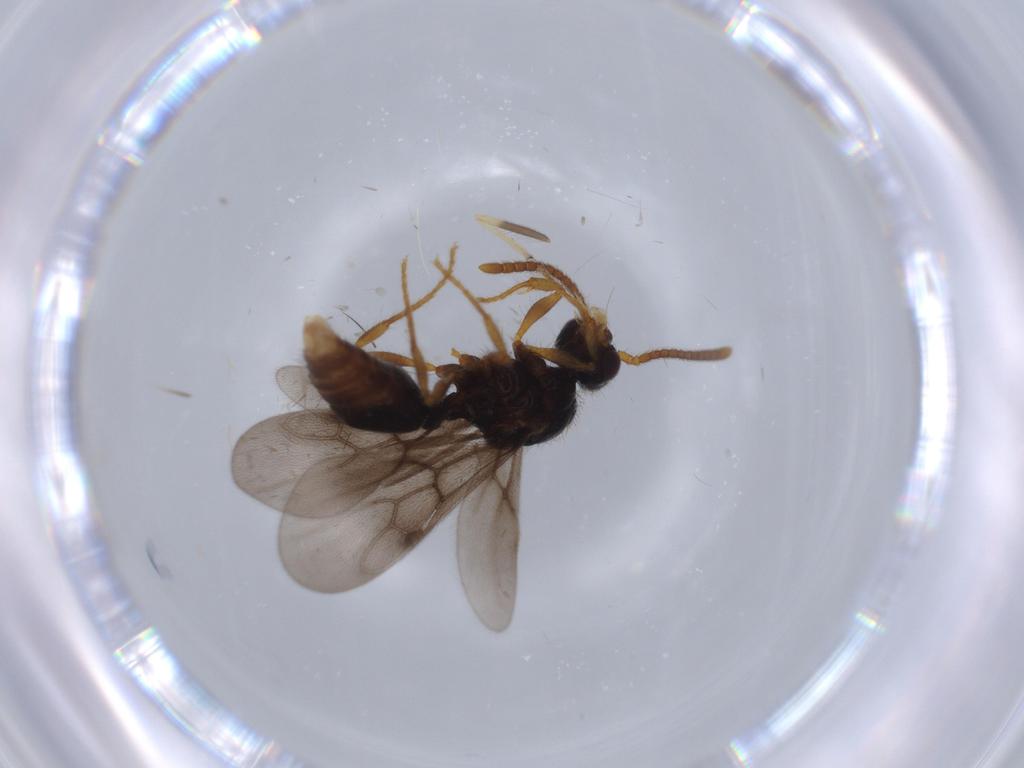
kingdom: Animalia
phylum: Arthropoda
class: Insecta
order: Hymenoptera
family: Formicidae
